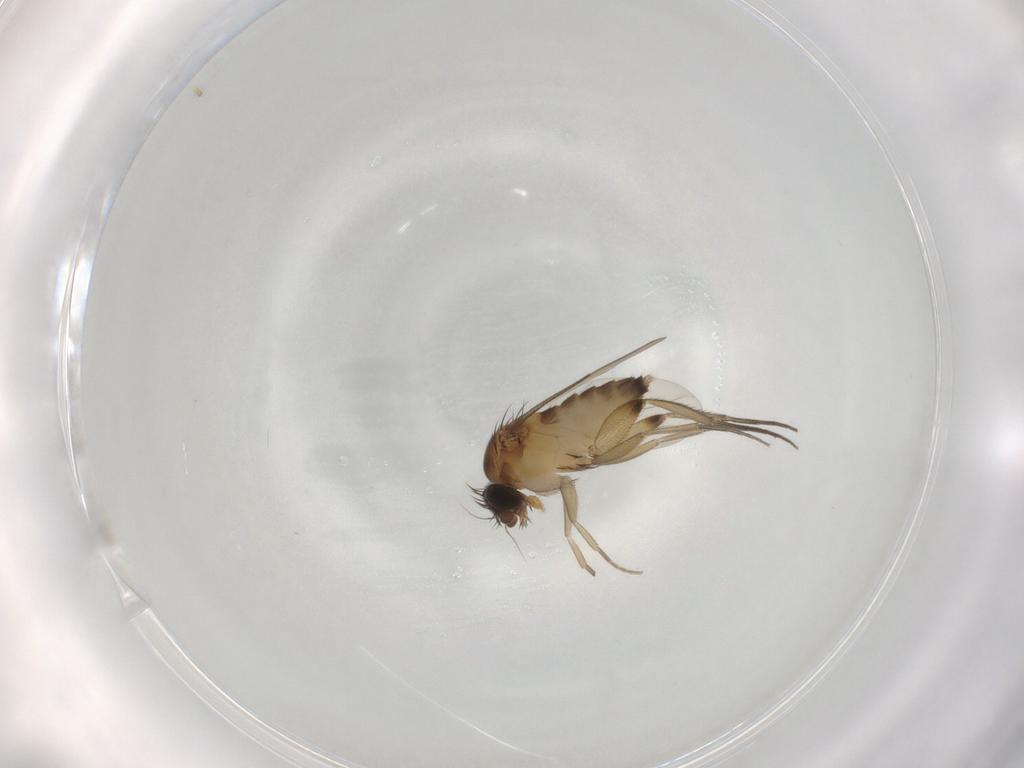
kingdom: Animalia
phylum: Arthropoda
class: Insecta
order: Diptera
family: Phoridae
